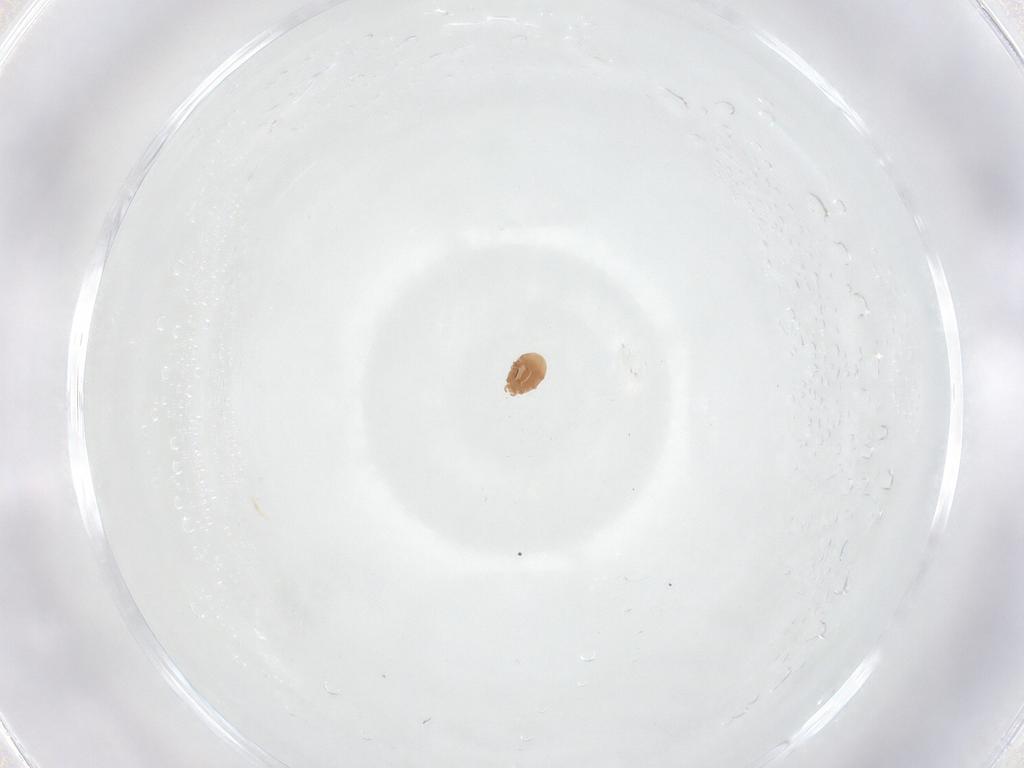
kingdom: Animalia
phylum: Arthropoda
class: Arachnida
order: Mesostigmata
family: Trematuridae
